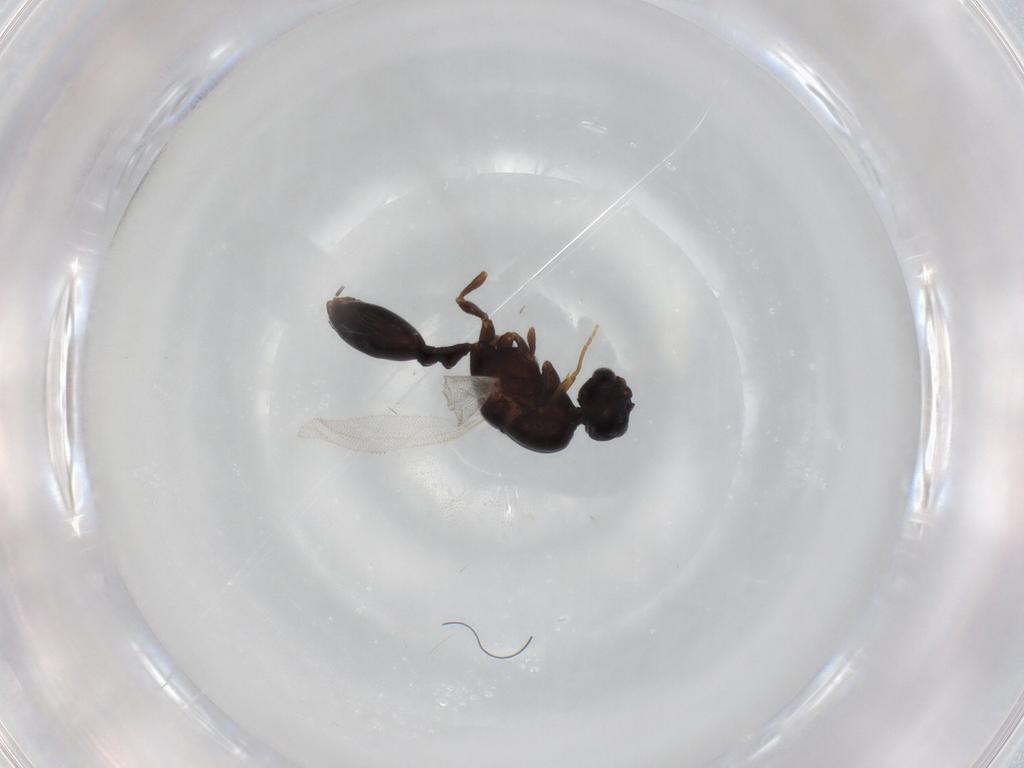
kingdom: Animalia
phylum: Arthropoda
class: Insecta
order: Hymenoptera
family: Formicidae
